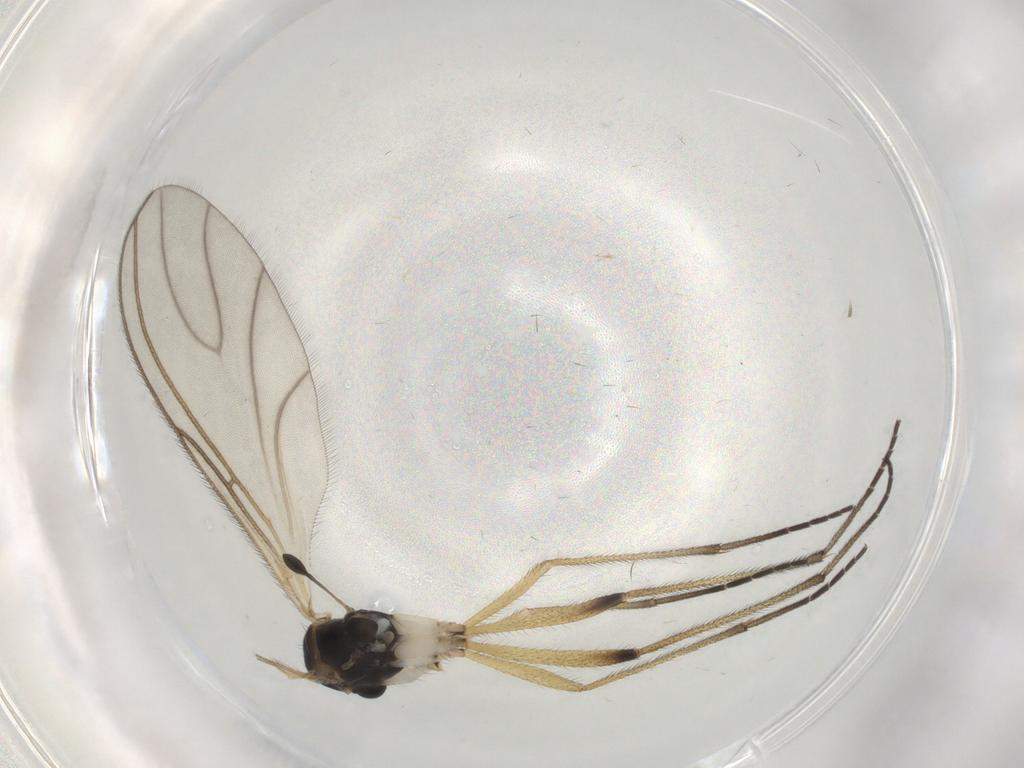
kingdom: Animalia
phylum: Arthropoda
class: Insecta
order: Diptera
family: Sciaridae
